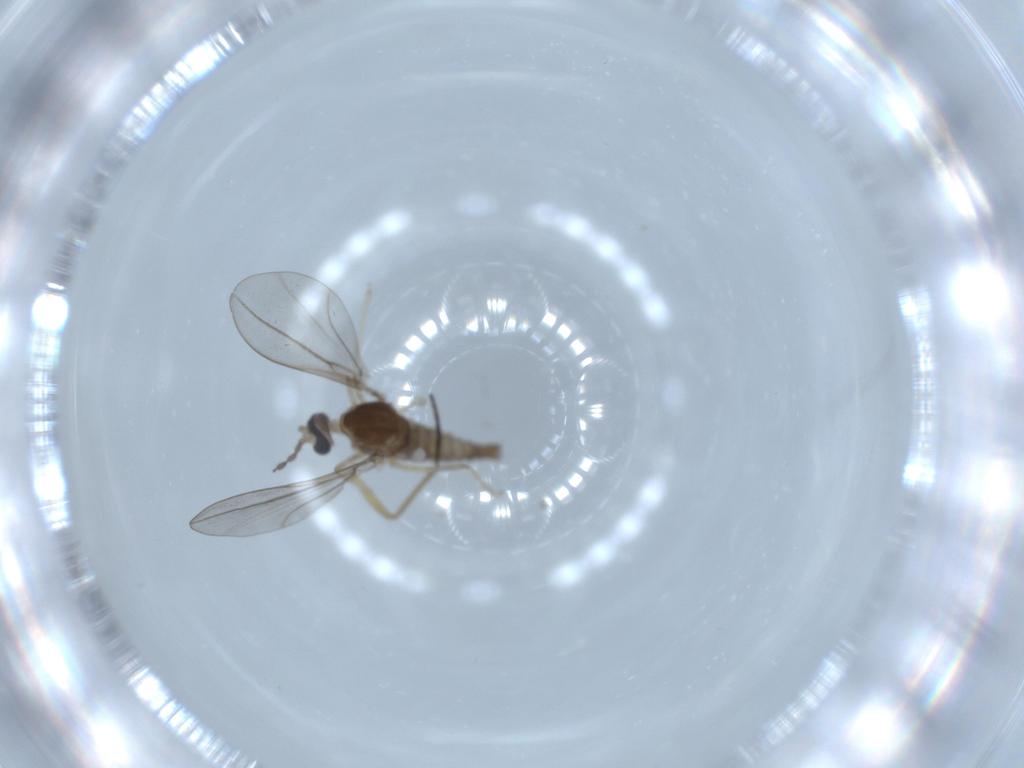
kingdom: Animalia
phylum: Arthropoda
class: Insecta
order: Diptera
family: Sciaridae
